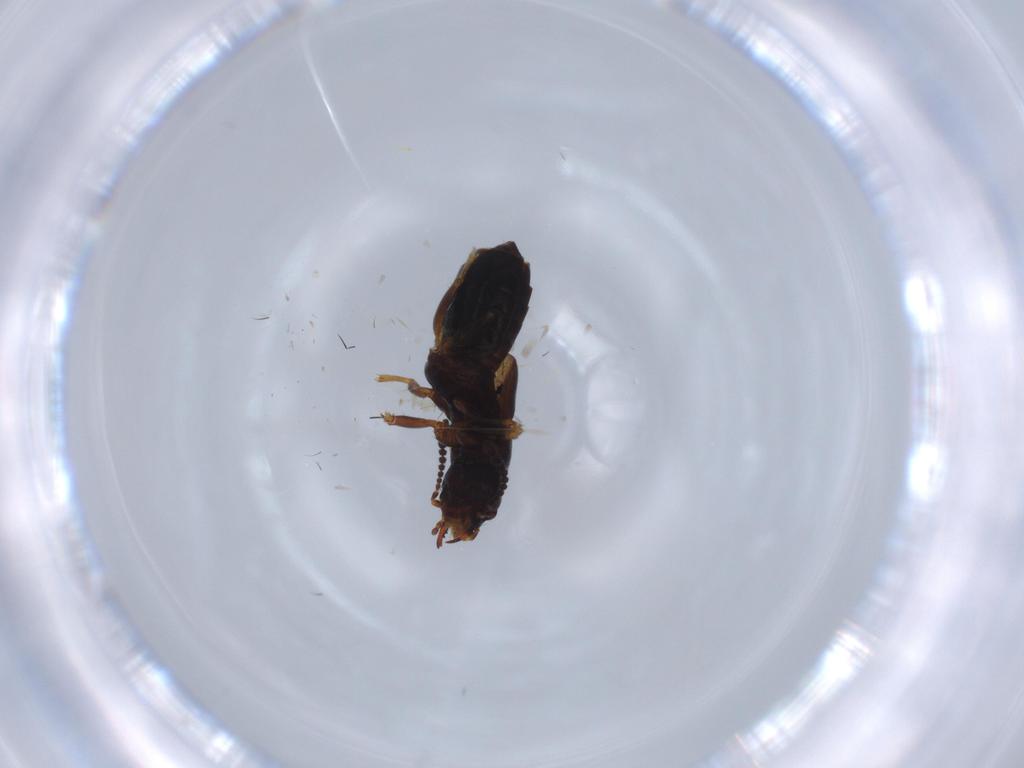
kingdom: Animalia
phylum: Arthropoda
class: Insecta
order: Coleoptera
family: Staphylinidae
